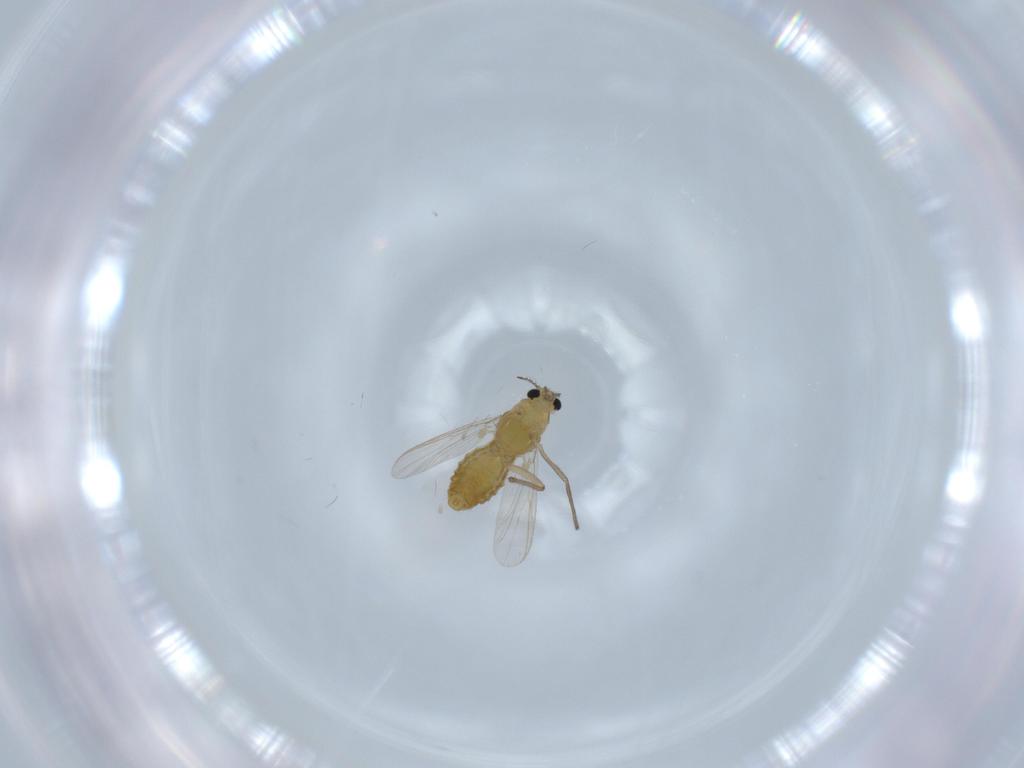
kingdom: Animalia
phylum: Arthropoda
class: Insecta
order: Diptera
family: Chironomidae
